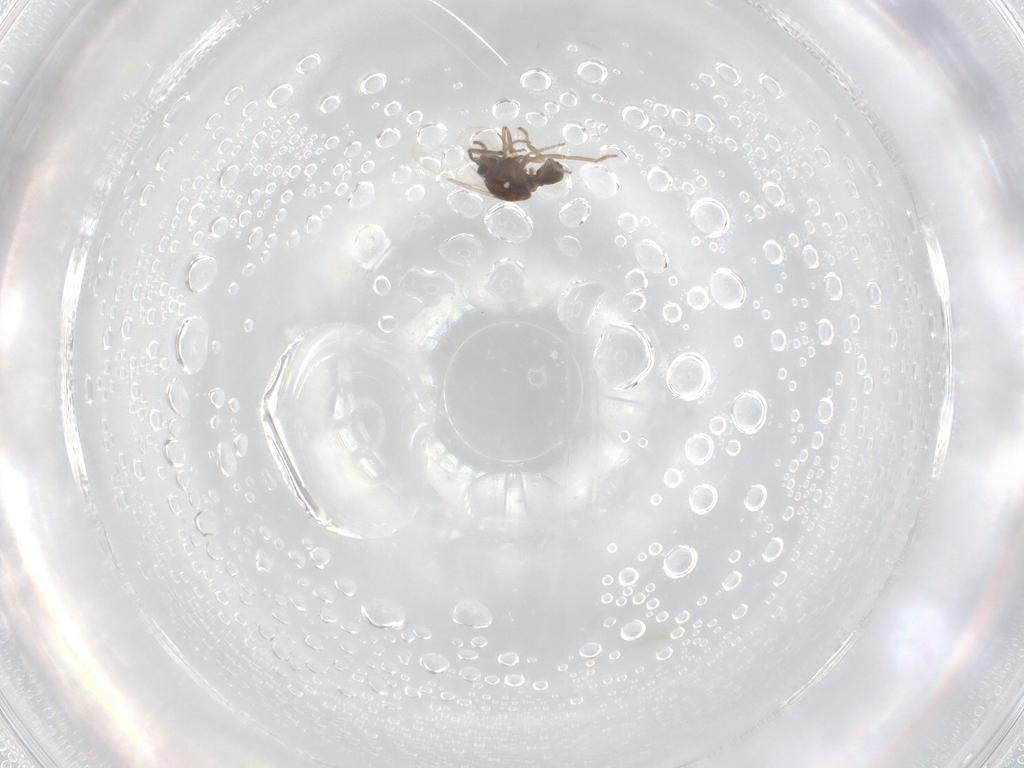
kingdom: Animalia
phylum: Arthropoda
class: Insecta
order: Diptera
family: Ceratopogonidae
